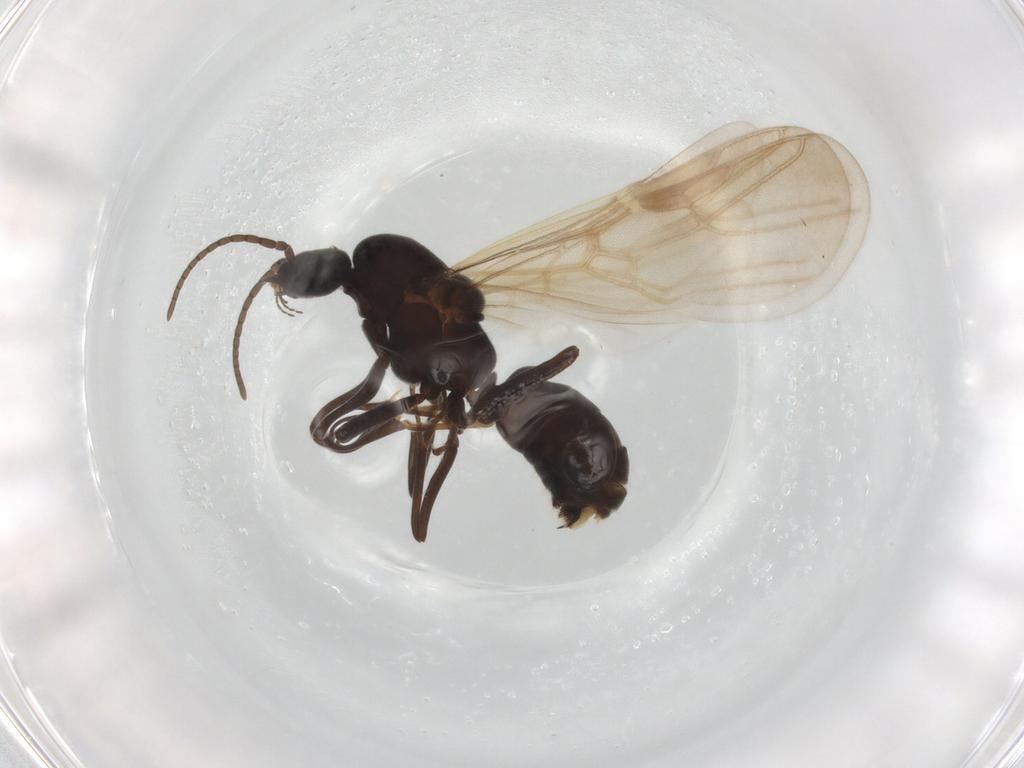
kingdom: Animalia
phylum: Arthropoda
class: Insecta
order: Hymenoptera
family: Formicidae
